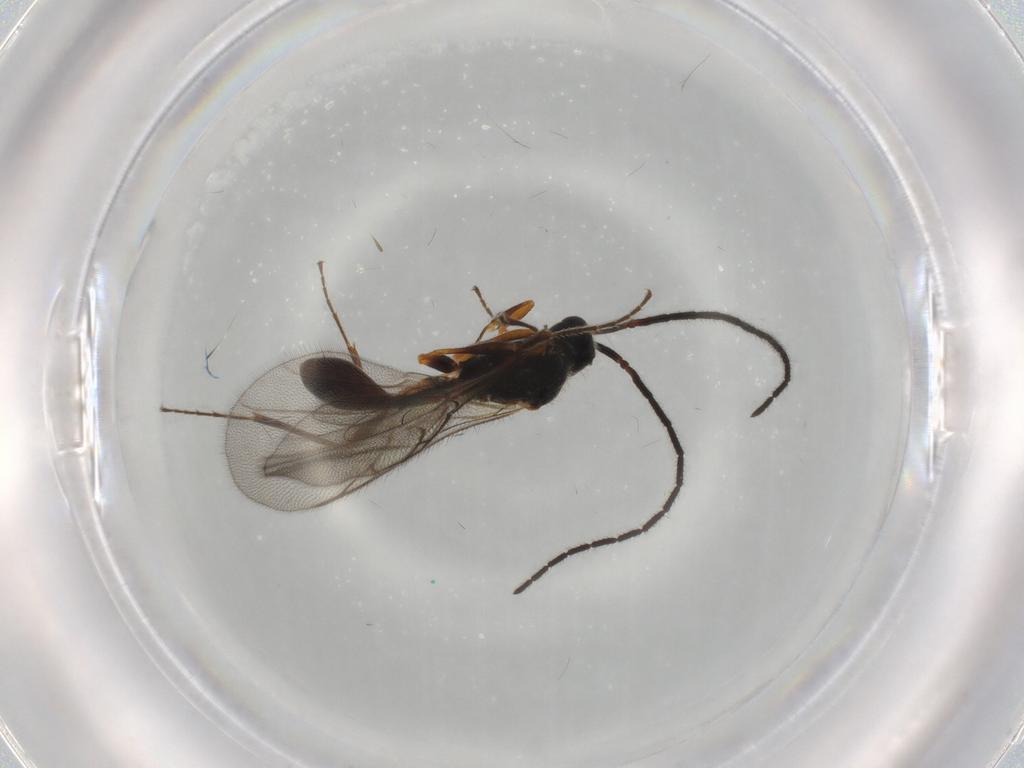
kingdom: Animalia
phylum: Arthropoda
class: Insecta
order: Hymenoptera
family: Diapriidae
